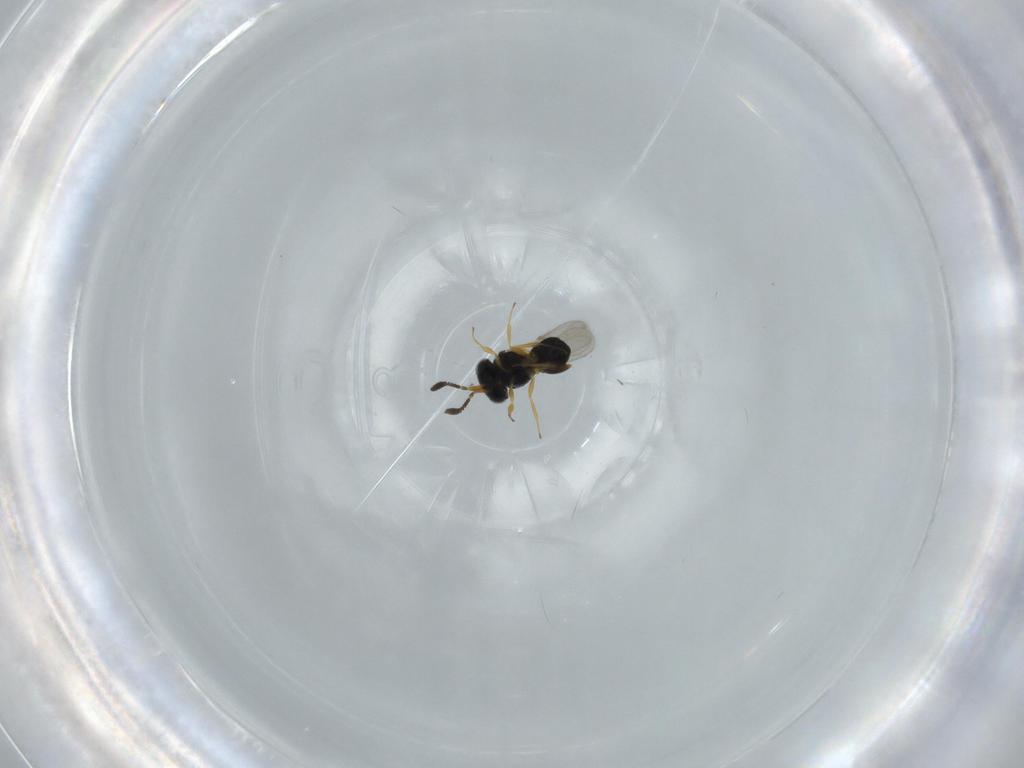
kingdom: Animalia
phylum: Arthropoda
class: Insecta
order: Hymenoptera
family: Scelionidae
